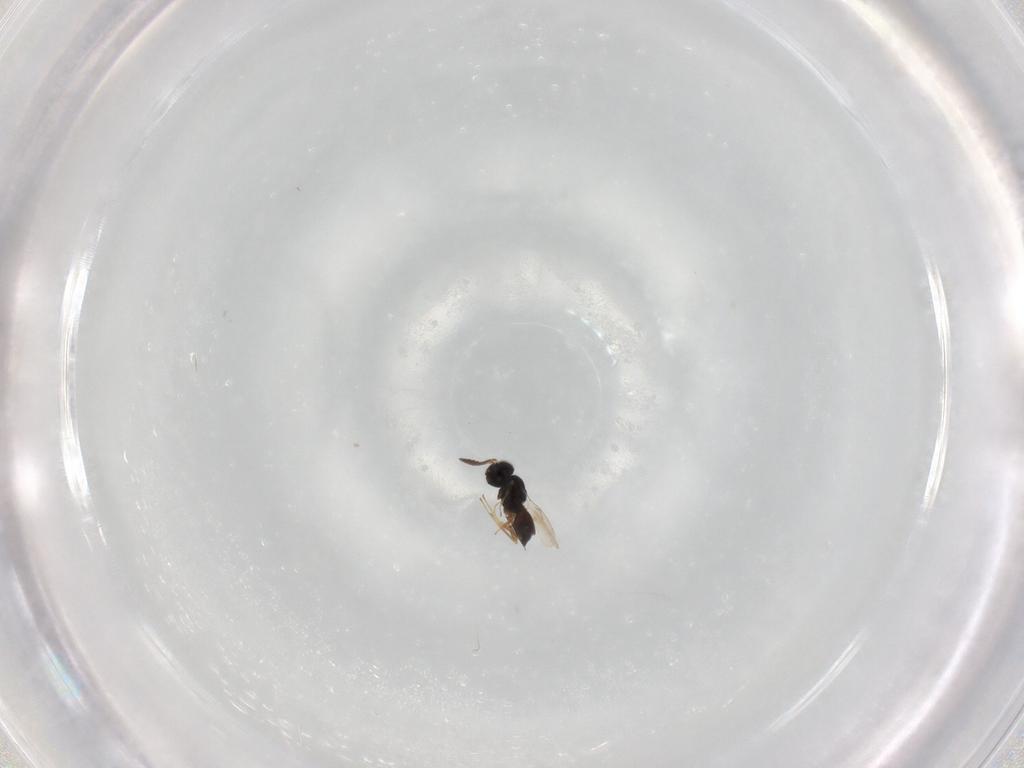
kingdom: Animalia
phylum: Arthropoda
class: Insecta
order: Hymenoptera
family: Scelionidae
